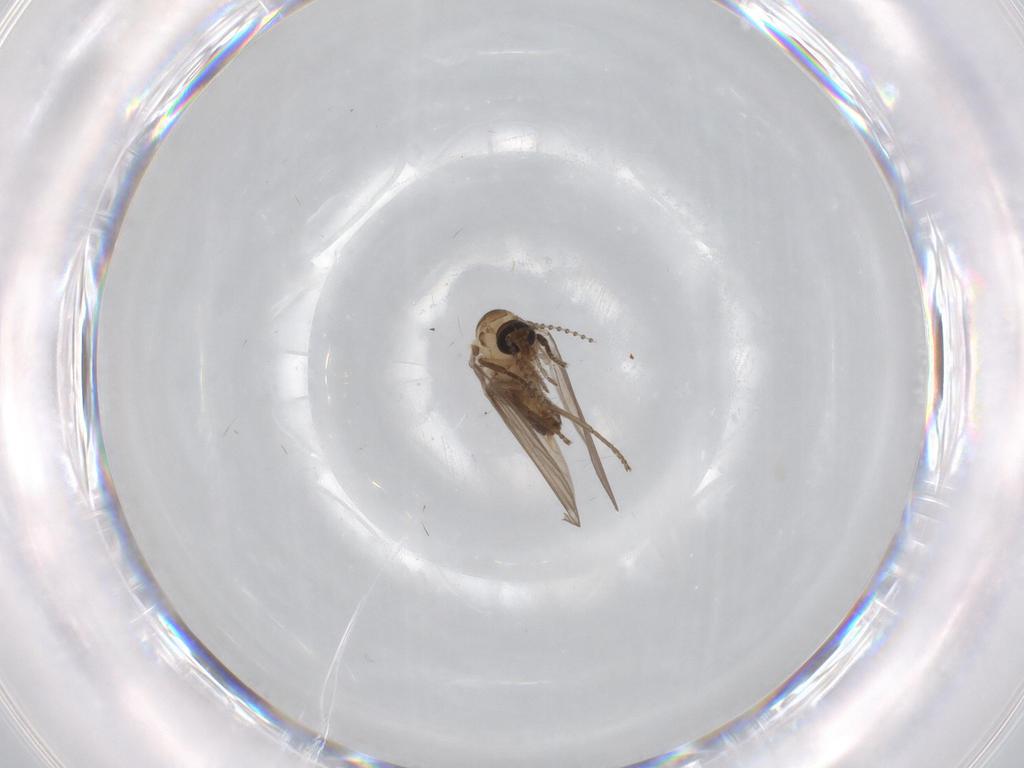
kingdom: Animalia
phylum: Arthropoda
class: Insecta
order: Diptera
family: Psychodidae
